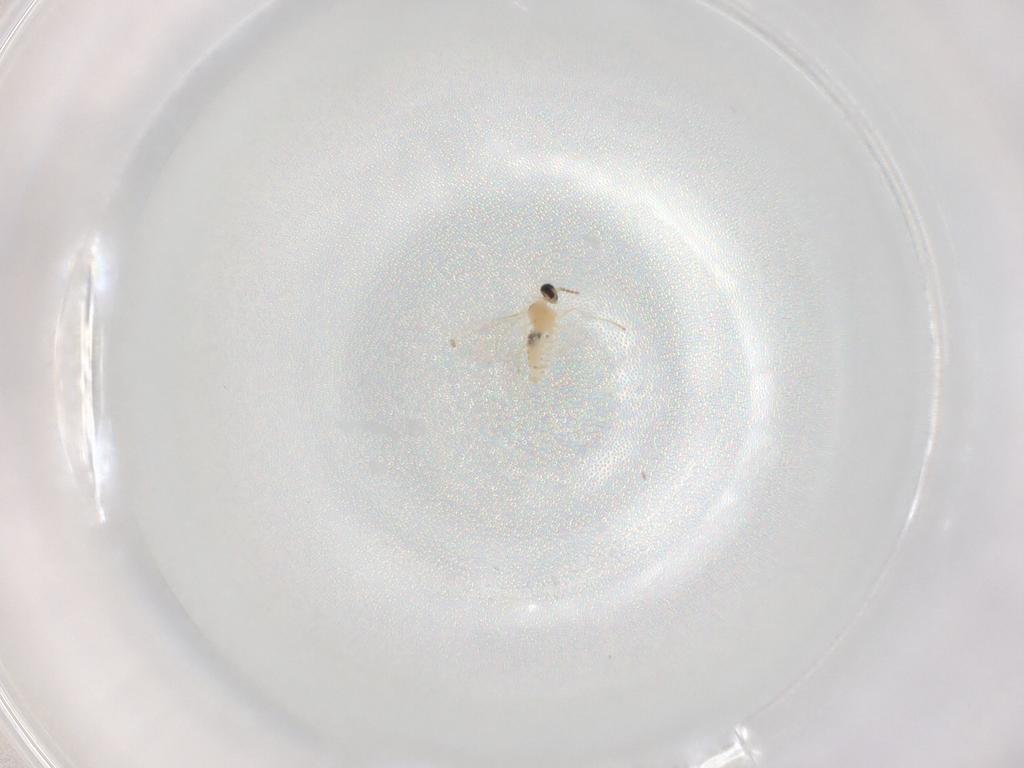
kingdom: Animalia
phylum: Arthropoda
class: Insecta
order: Diptera
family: Cecidomyiidae
